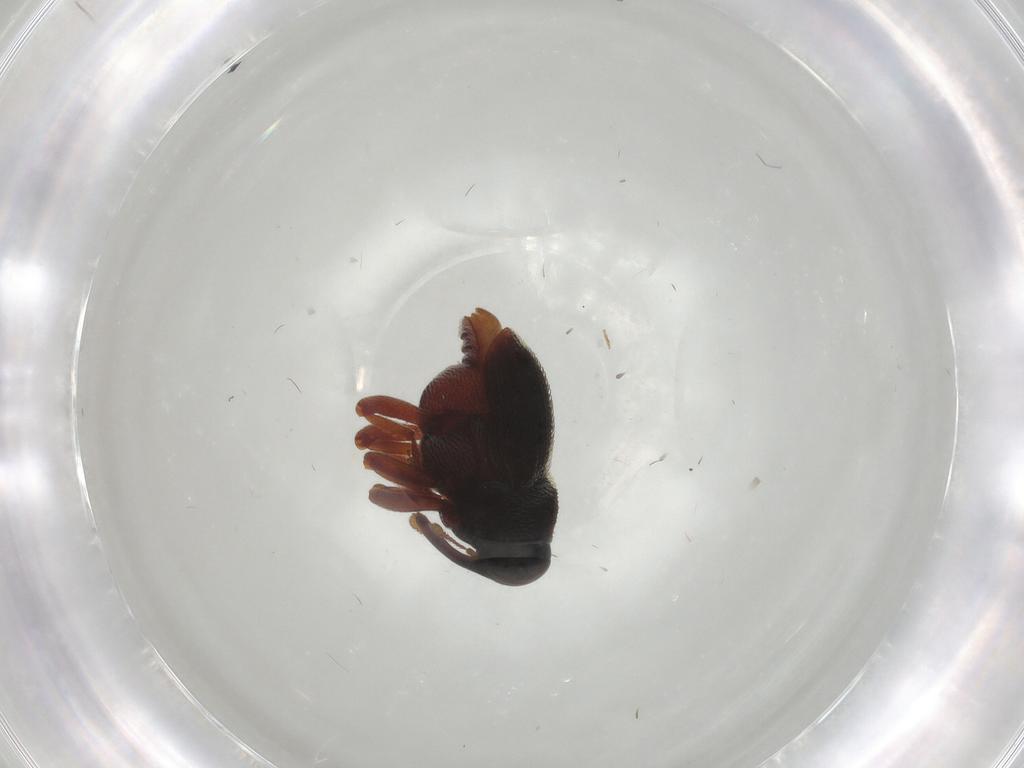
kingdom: Animalia
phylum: Arthropoda
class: Insecta
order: Coleoptera
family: Curculionidae
